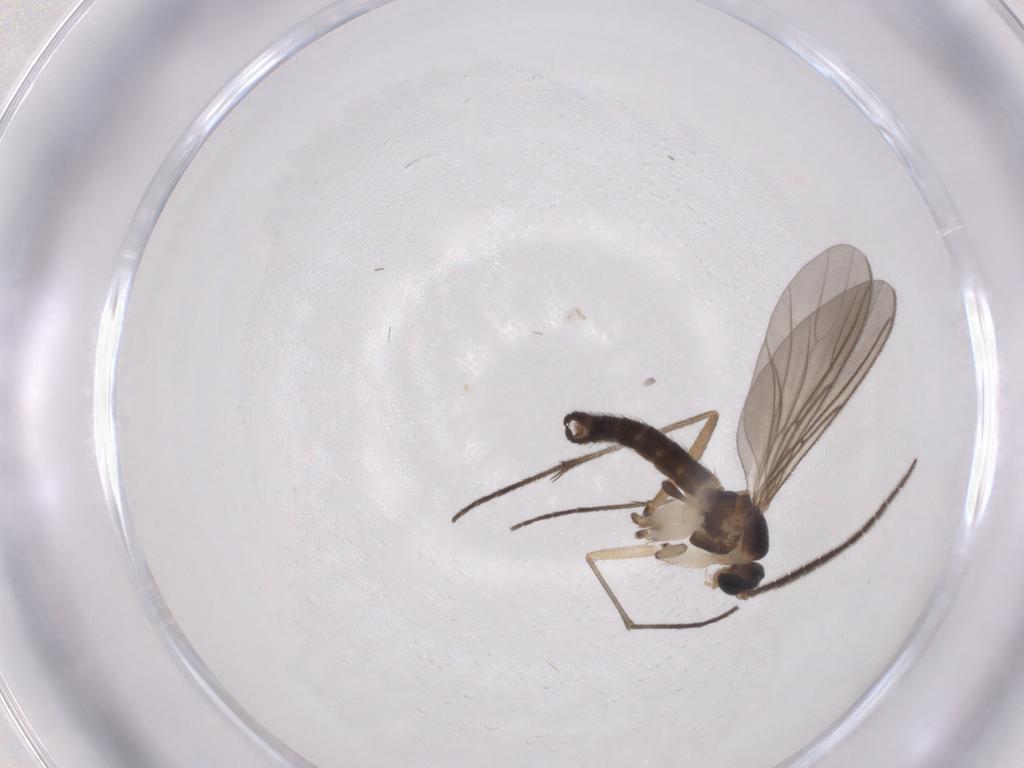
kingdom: Animalia
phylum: Arthropoda
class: Insecta
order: Diptera
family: Sciaridae
